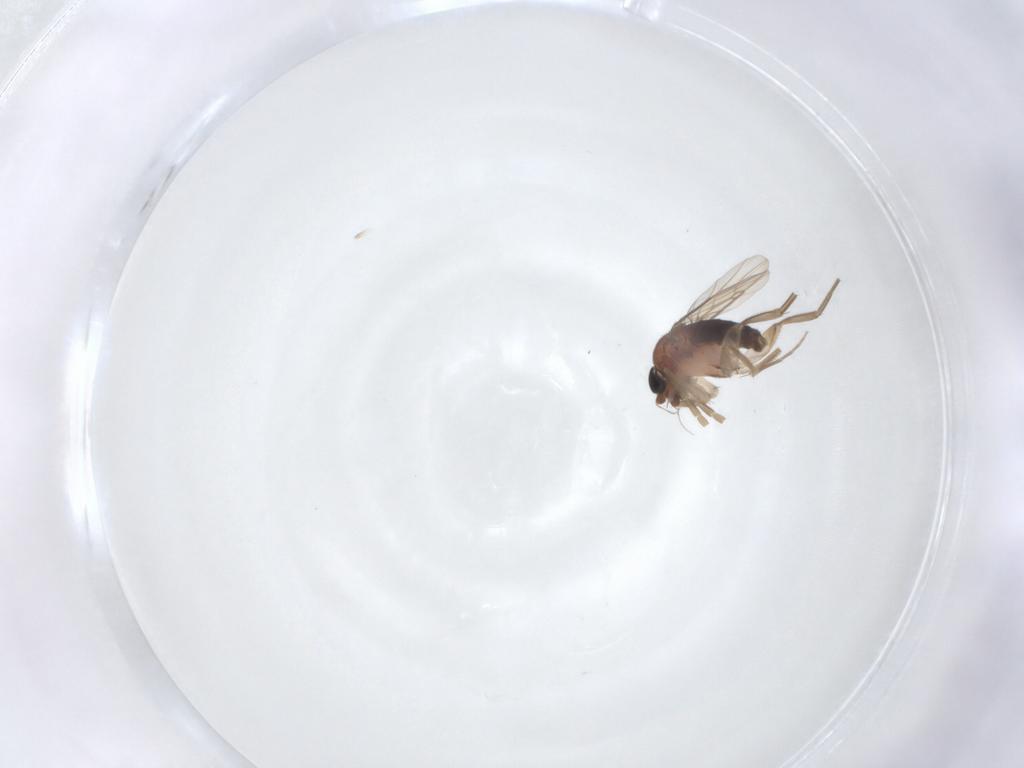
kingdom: Animalia
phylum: Arthropoda
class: Insecta
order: Diptera
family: Phoridae
